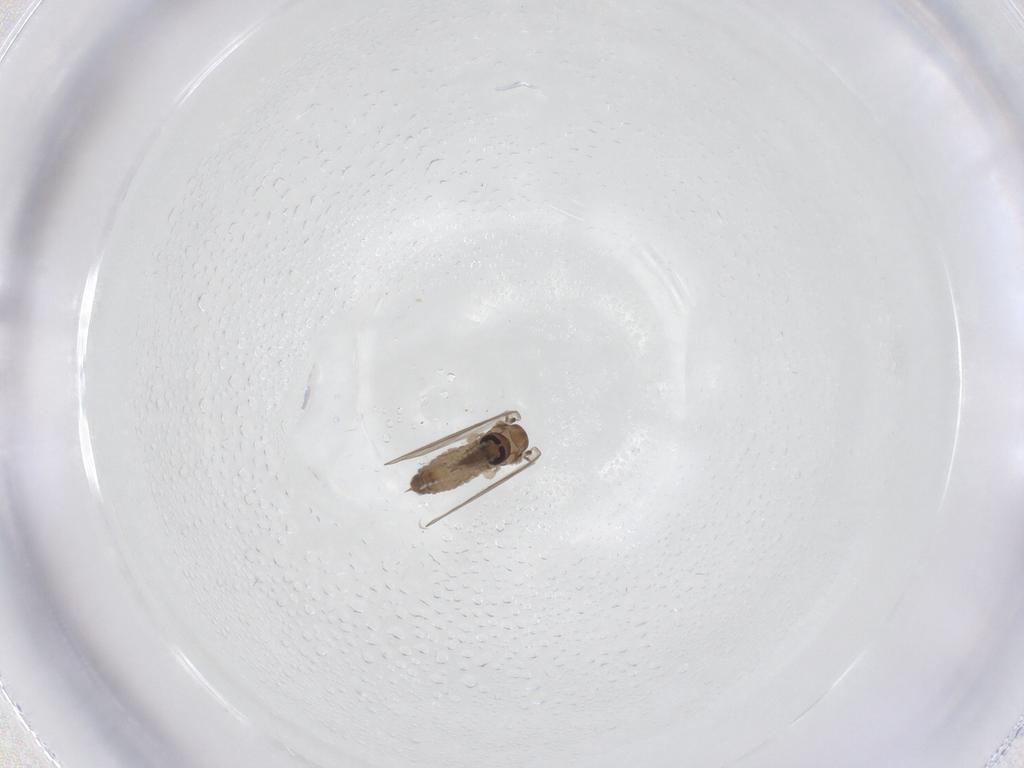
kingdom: Animalia
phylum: Arthropoda
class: Insecta
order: Diptera
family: Psychodidae
